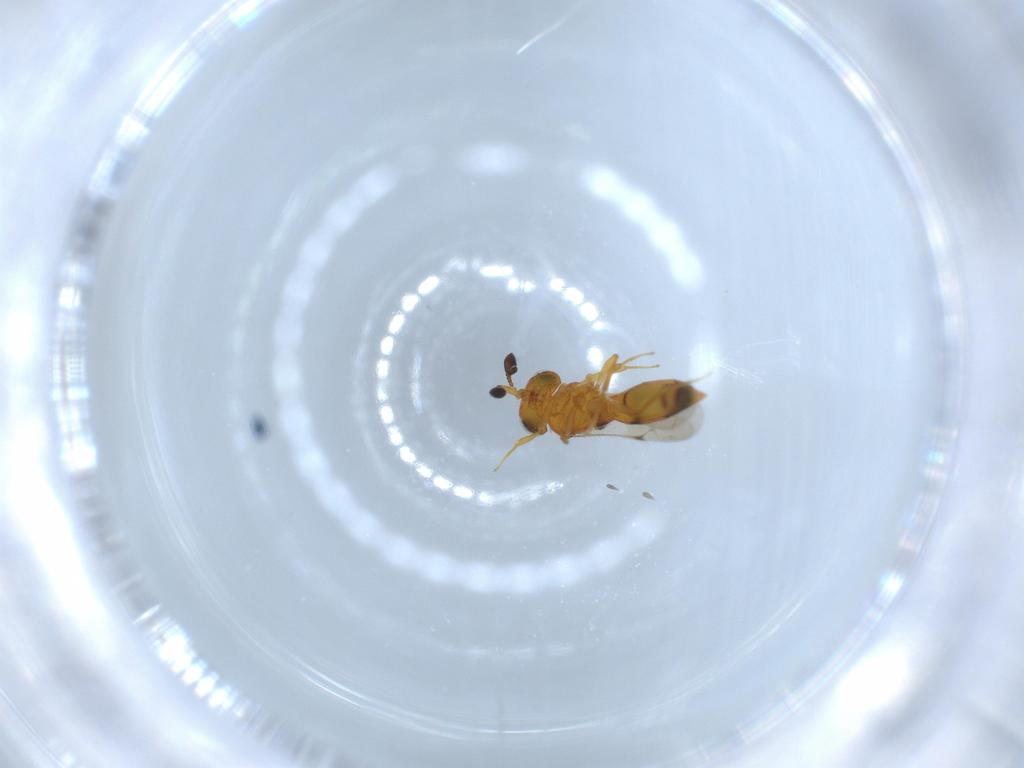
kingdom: Animalia
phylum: Arthropoda
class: Insecta
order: Hymenoptera
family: Scelionidae
